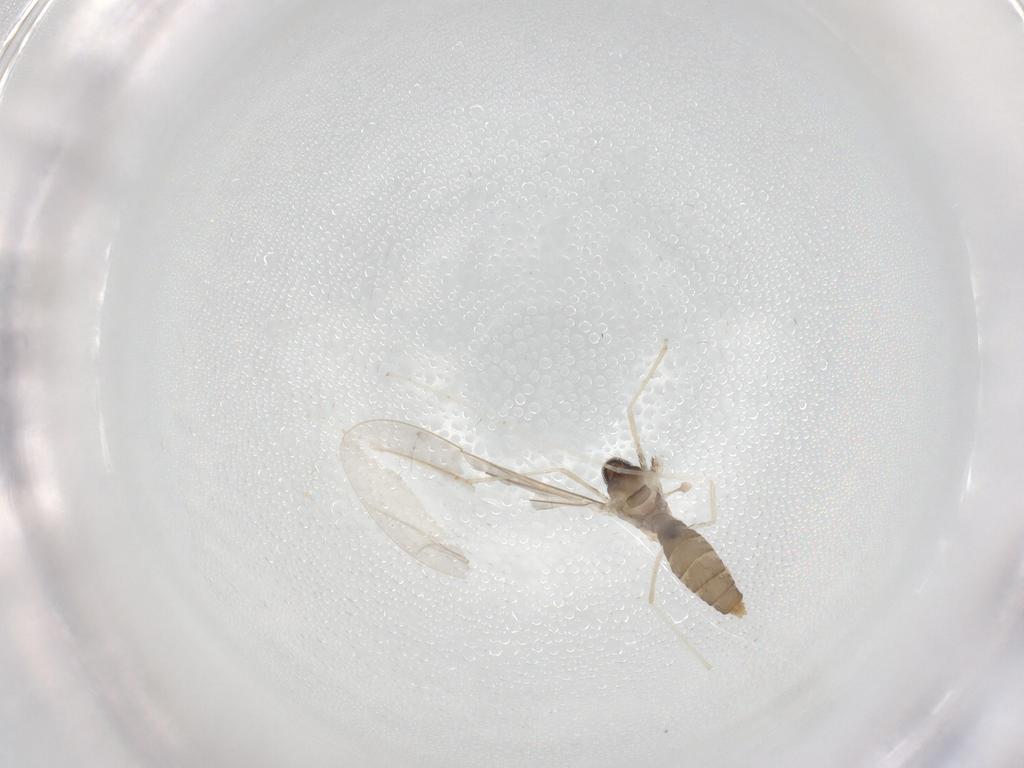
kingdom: Animalia
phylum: Arthropoda
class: Insecta
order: Diptera
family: Cecidomyiidae
